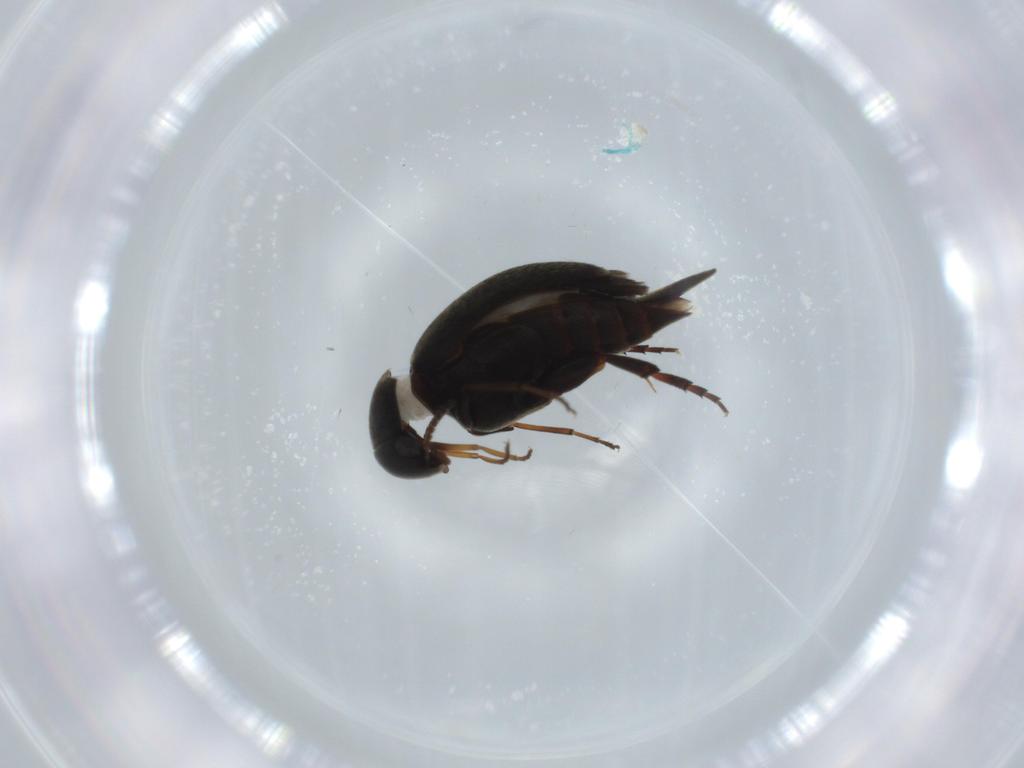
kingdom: Animalia
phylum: Arthropoda
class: Insecta
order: Coleoptera
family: Mordellidae
